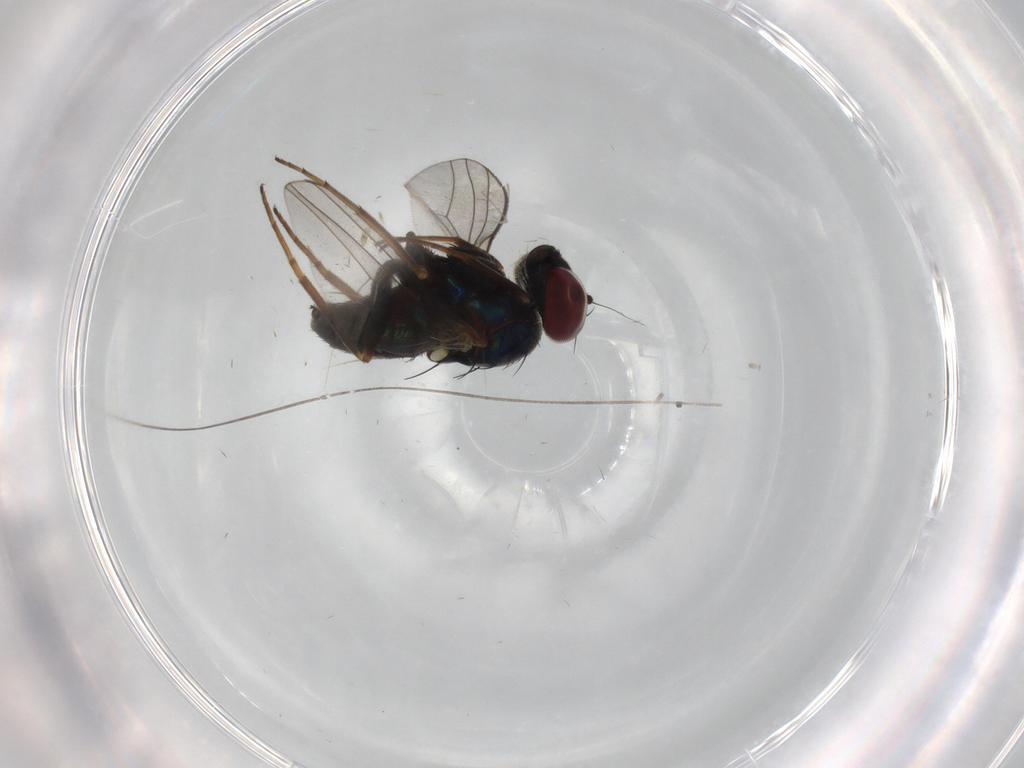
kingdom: Animalia
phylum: Arthropoda
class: Insecta
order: Diptera
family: Dolichopodidae
